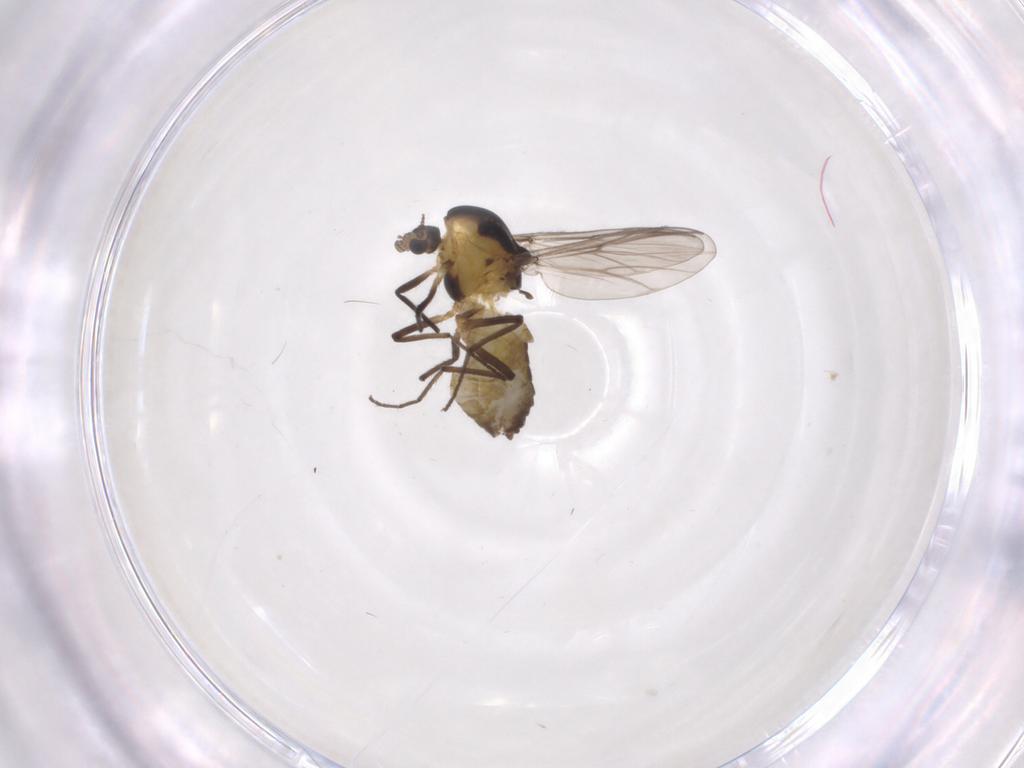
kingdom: Animalia
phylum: Arthropoda
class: Insecta
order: Diptera
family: Chironomidae
